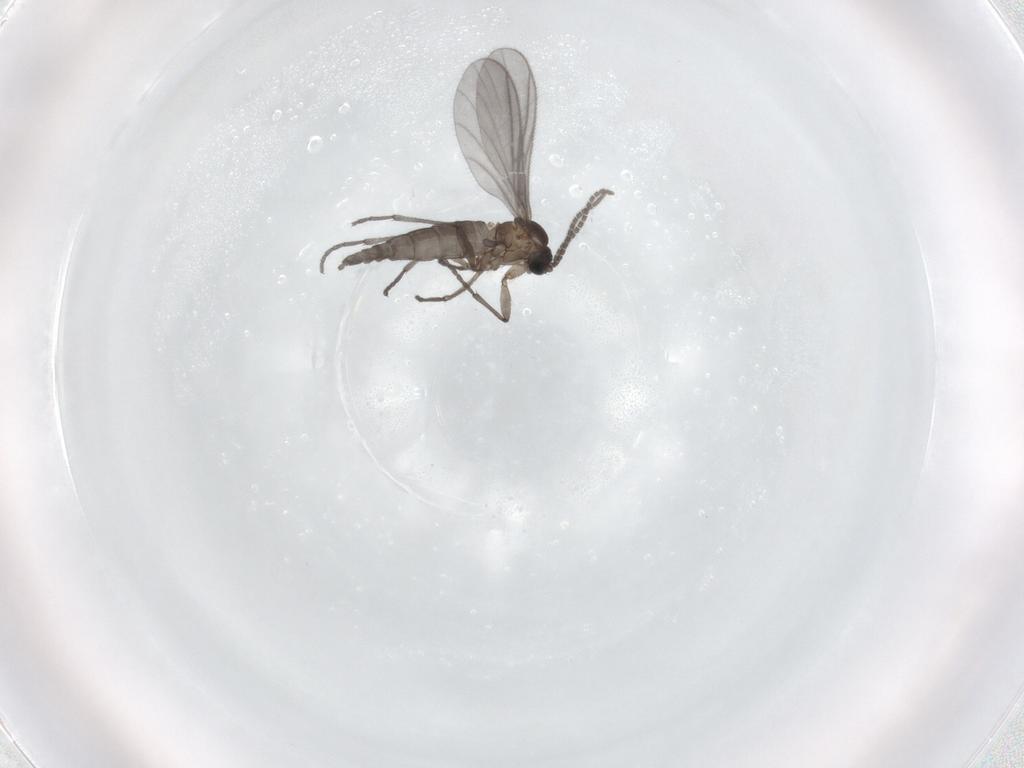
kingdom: Animalia
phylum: Arthropoda
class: Insecta
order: Diptera
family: Sciaridae
